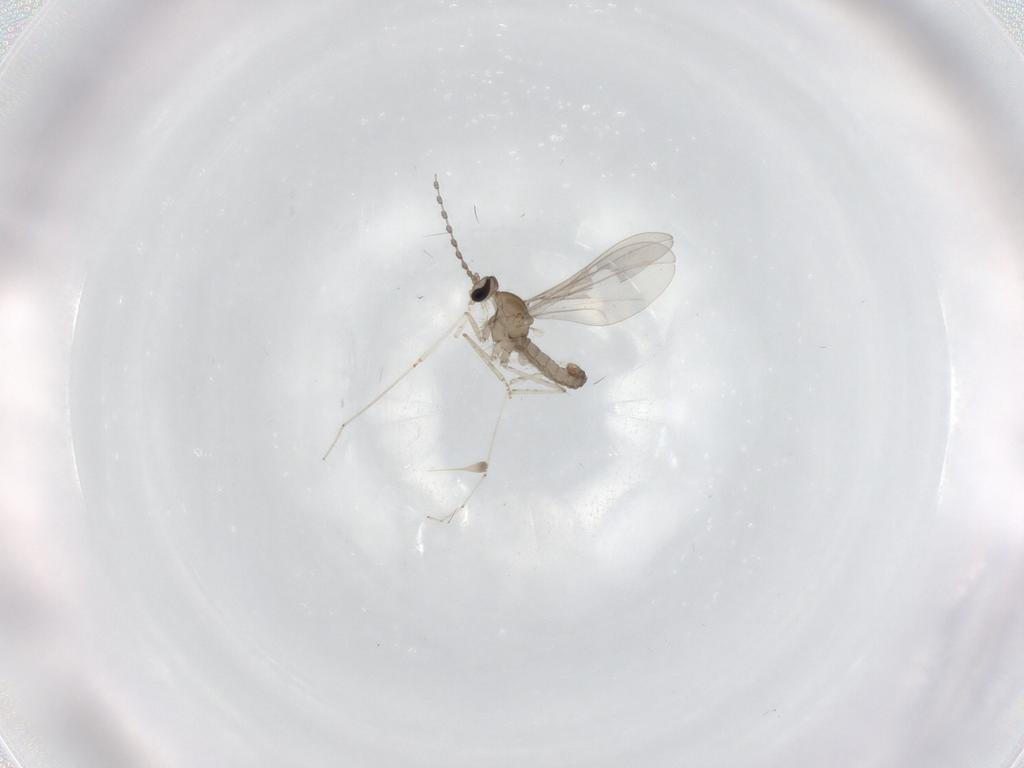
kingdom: Animalia
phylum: Arthropoda
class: Insecta
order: Diptera
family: Cecidomyiidae
